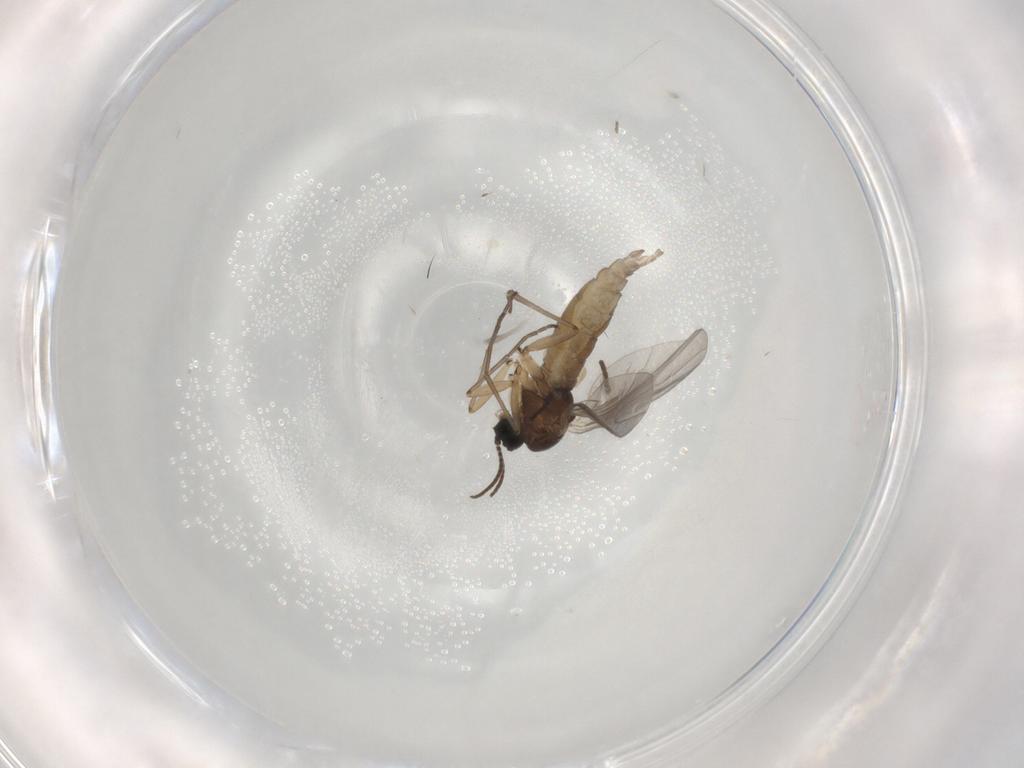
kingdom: Animalia
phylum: Arthropoda
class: Insecta
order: Diptera
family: Sciaridae
